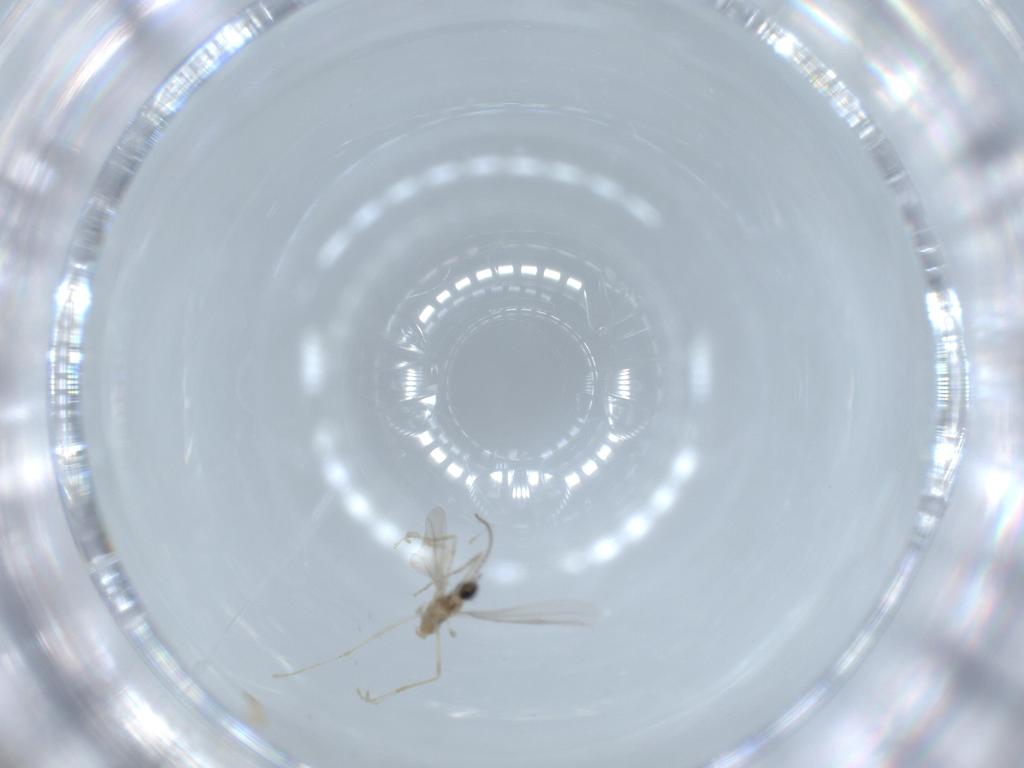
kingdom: Animalia
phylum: Arthropoda
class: Insecta
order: Diptera
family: Cecidomyiidae
